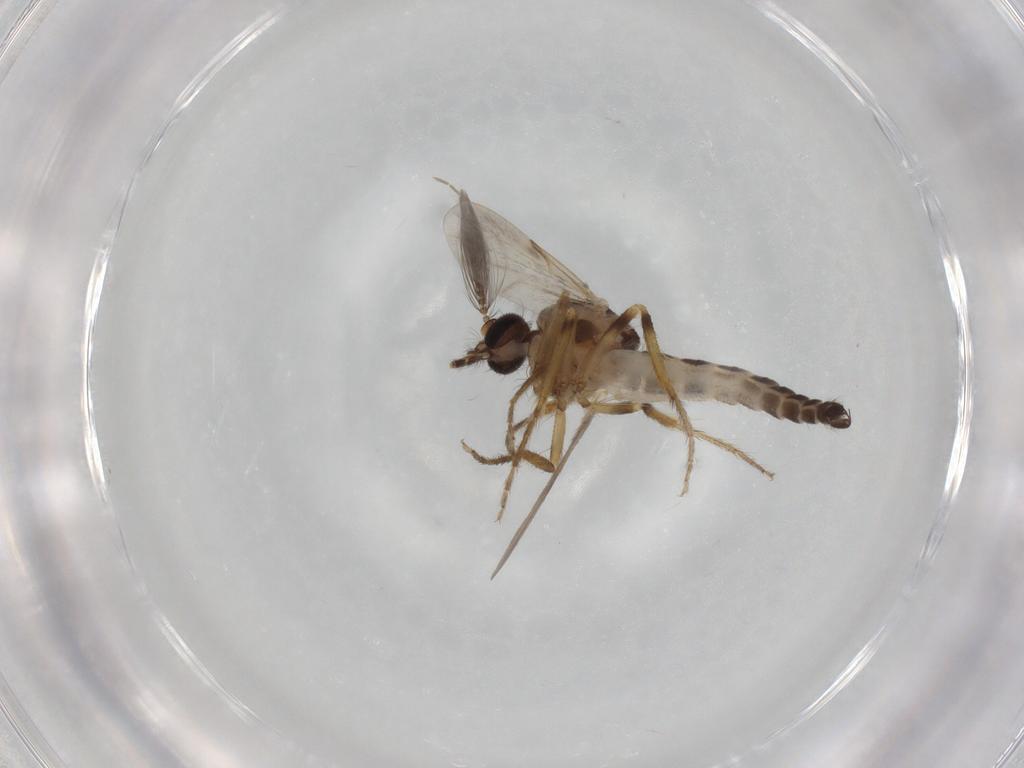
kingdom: Animalia
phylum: Arthropoda
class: Insecta
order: Diptera
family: Ceratopogonidae
